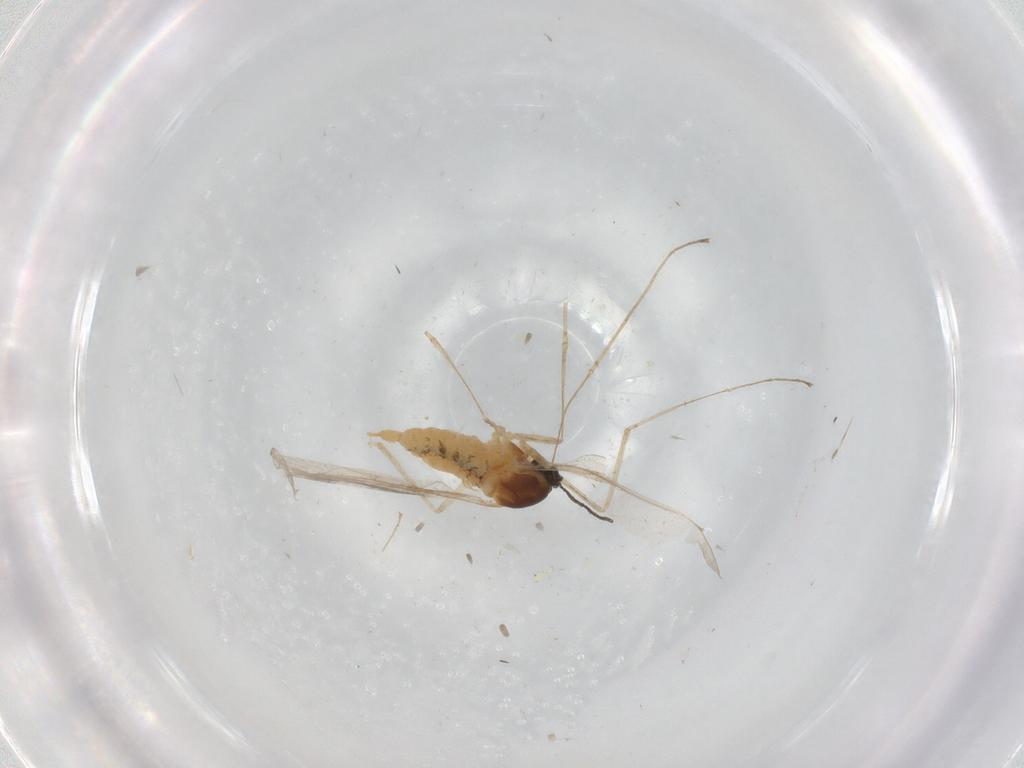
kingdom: Animalia
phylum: Arthropoda
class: Insecta
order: Diptera
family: Cecidomyiidae
